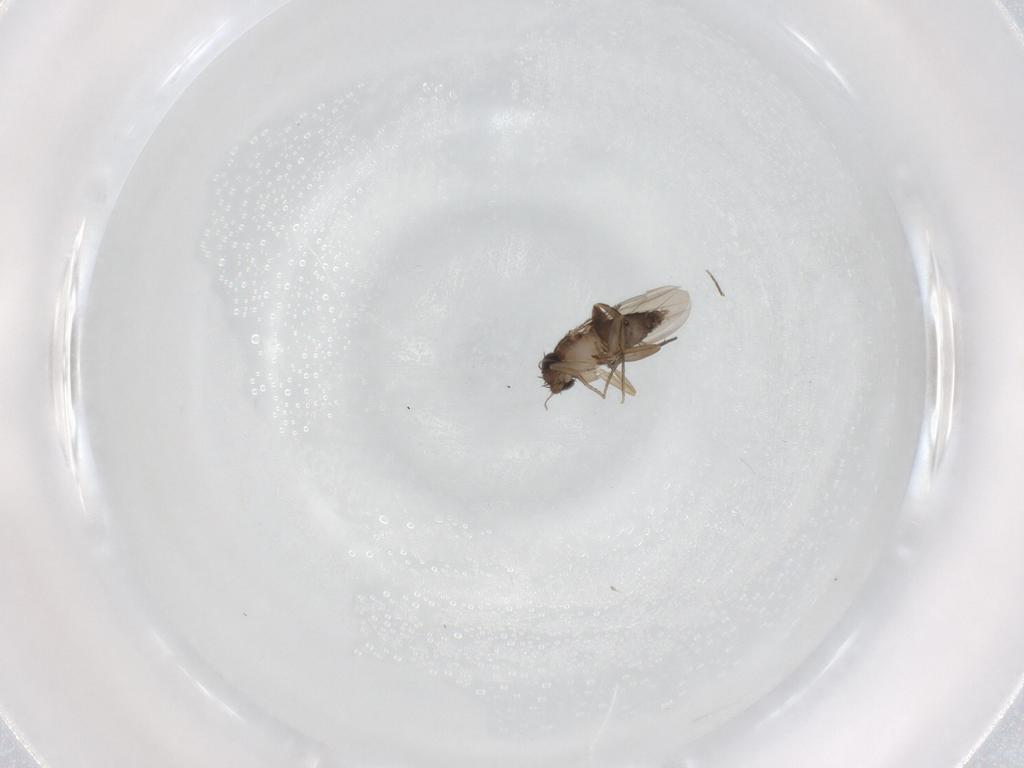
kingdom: Animalia
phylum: Arthropoda
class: Insecta
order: Diptera
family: Phoridae
